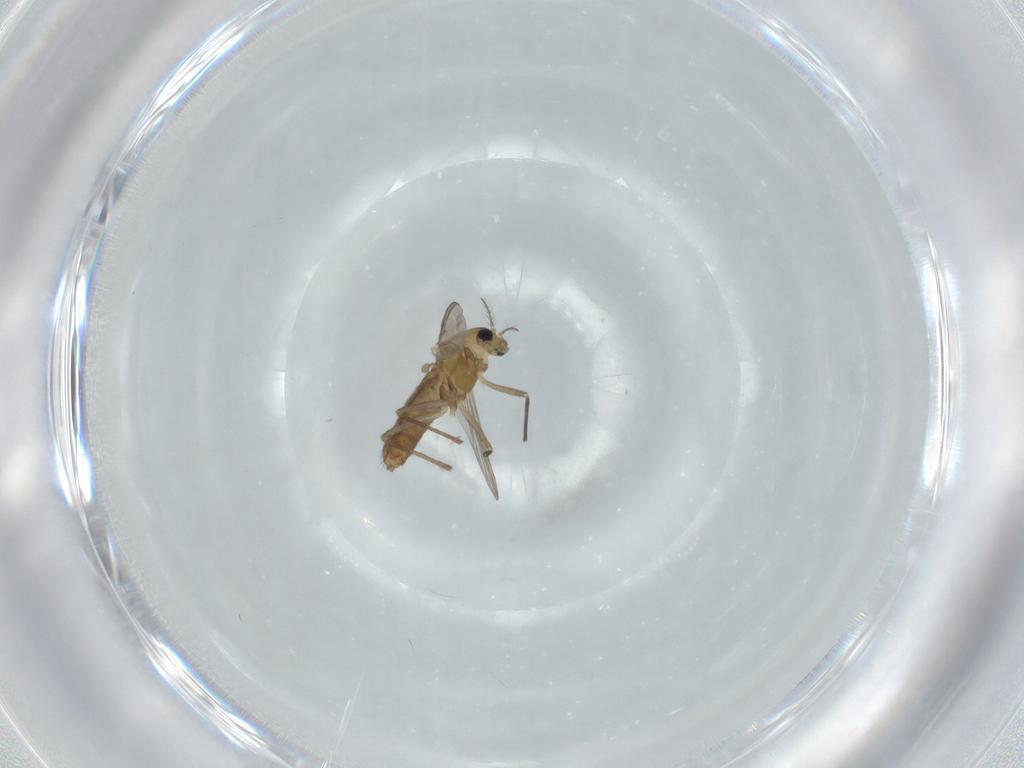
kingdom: Animalia
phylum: Arthropoda
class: Insecta
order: Diptera
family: Chironomidae
